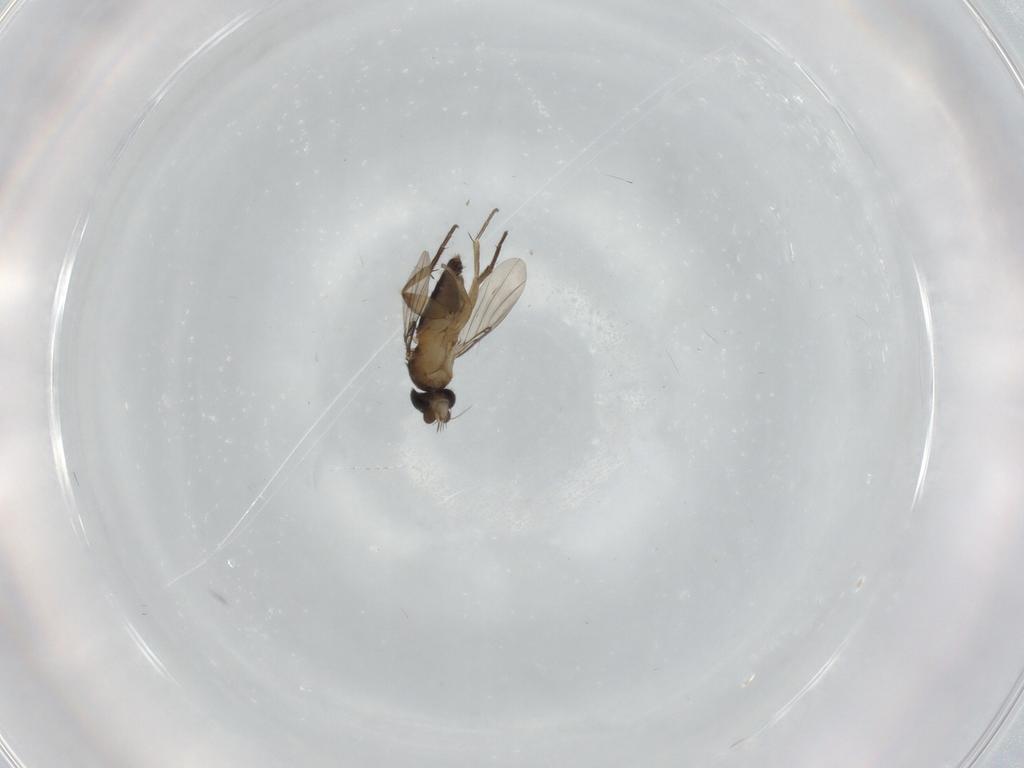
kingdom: Animalia
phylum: Arthropoda
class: Insecta
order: Diptera
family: Phoridae
